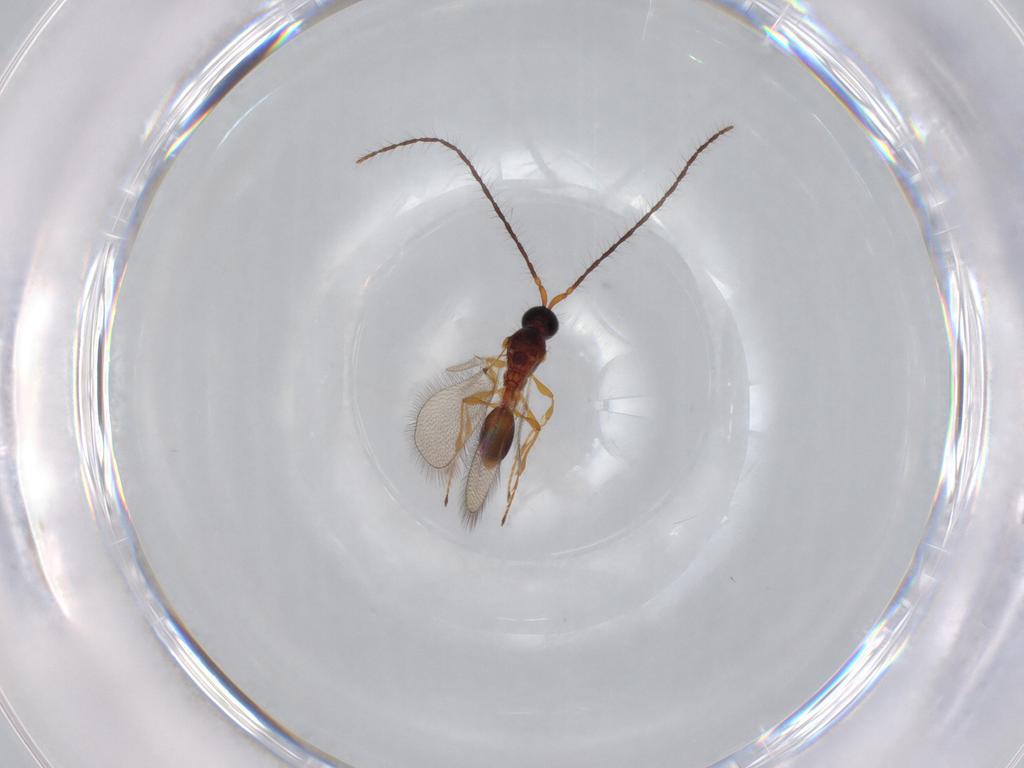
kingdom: Animalia
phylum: Arthropoda
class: Insecta
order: Hymenoptera
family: Diapriidae
